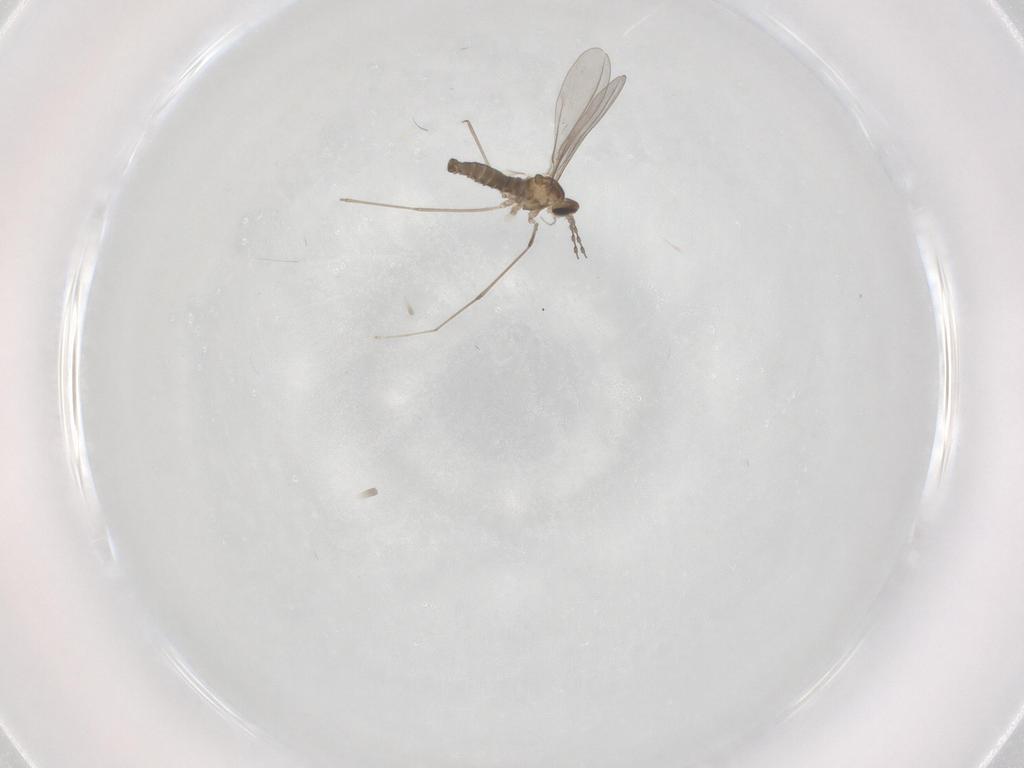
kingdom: Animalia
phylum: Arthropoda
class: Insecta
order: Diptera
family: Cecidomyiidae
